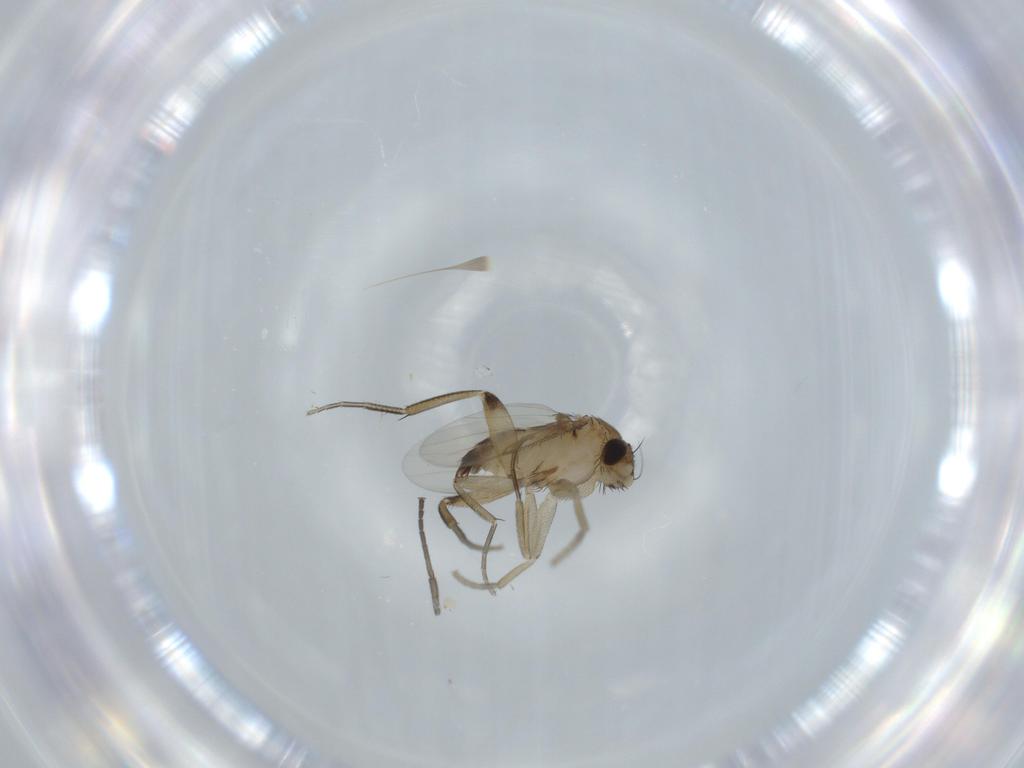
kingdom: Animalia
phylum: Arthropoda
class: Insecta
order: Diptera
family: Phoridae
